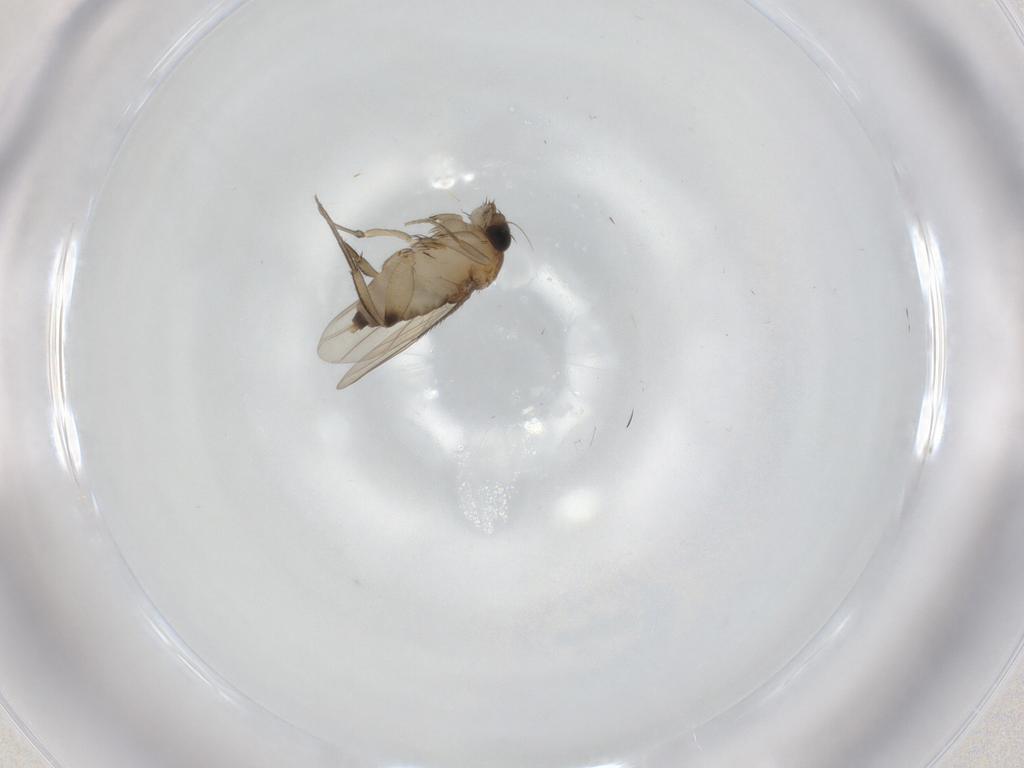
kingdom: Animalia
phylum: Arthropoda
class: Insecta
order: Diptera
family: Phoridae
